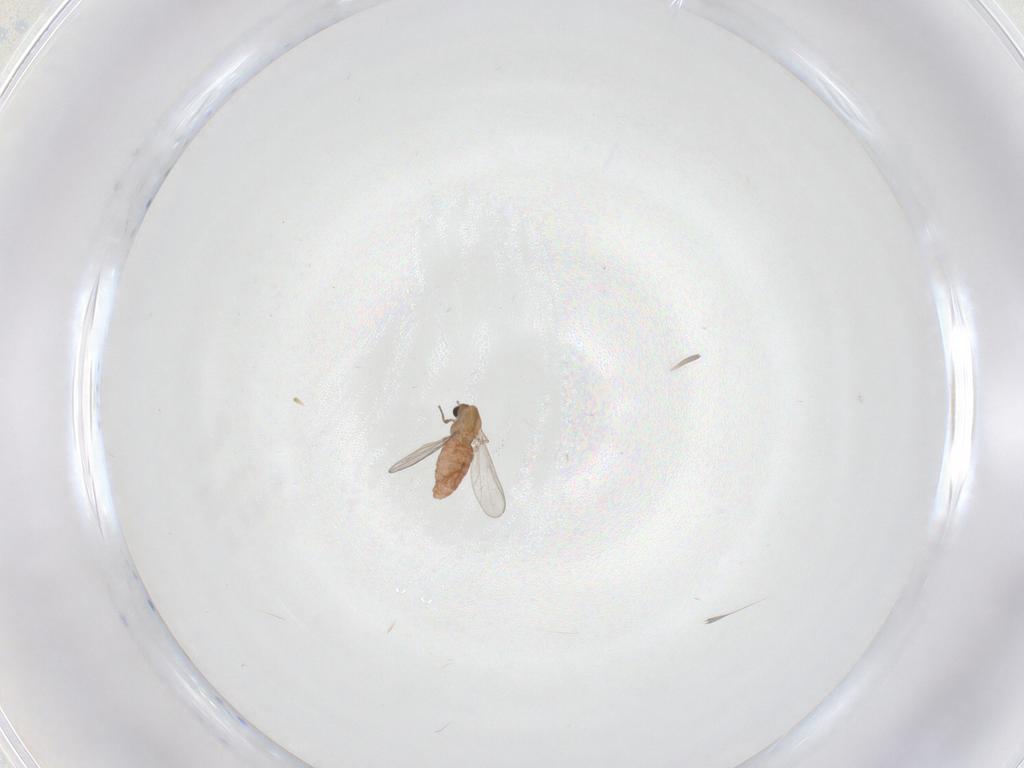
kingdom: Animalia
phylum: Arthropoda
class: Insecta
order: Diptera
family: Chironomidae
